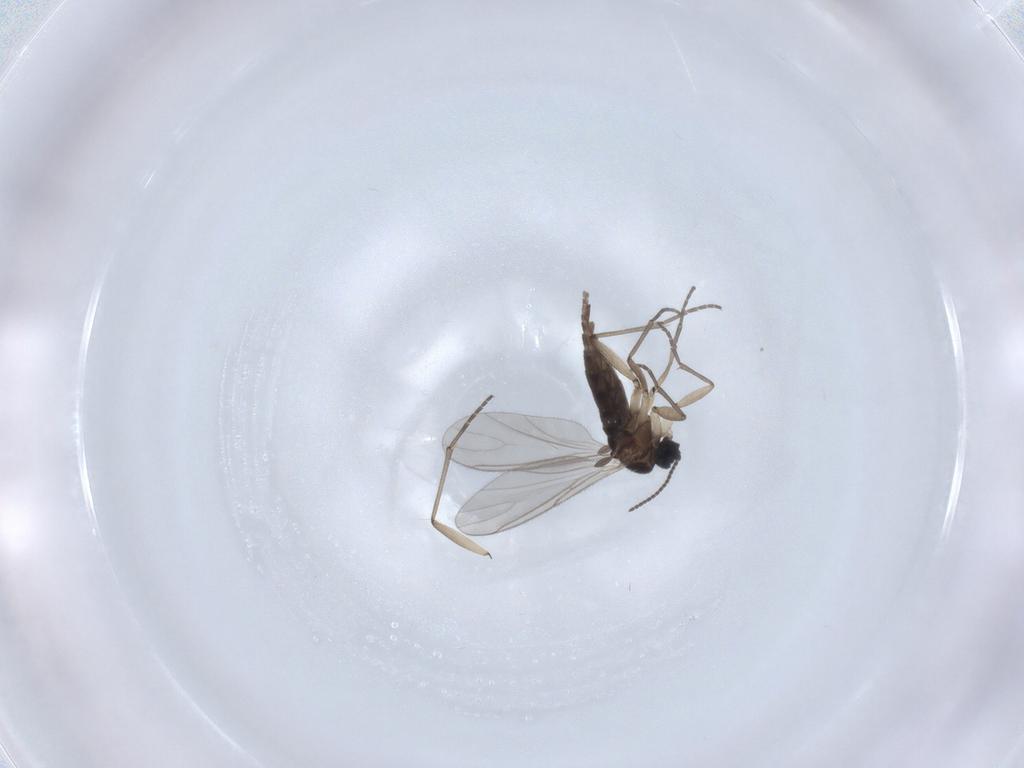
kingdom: Animalia
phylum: Arthropoda
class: Insecta
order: Diptera
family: Sciaridae
